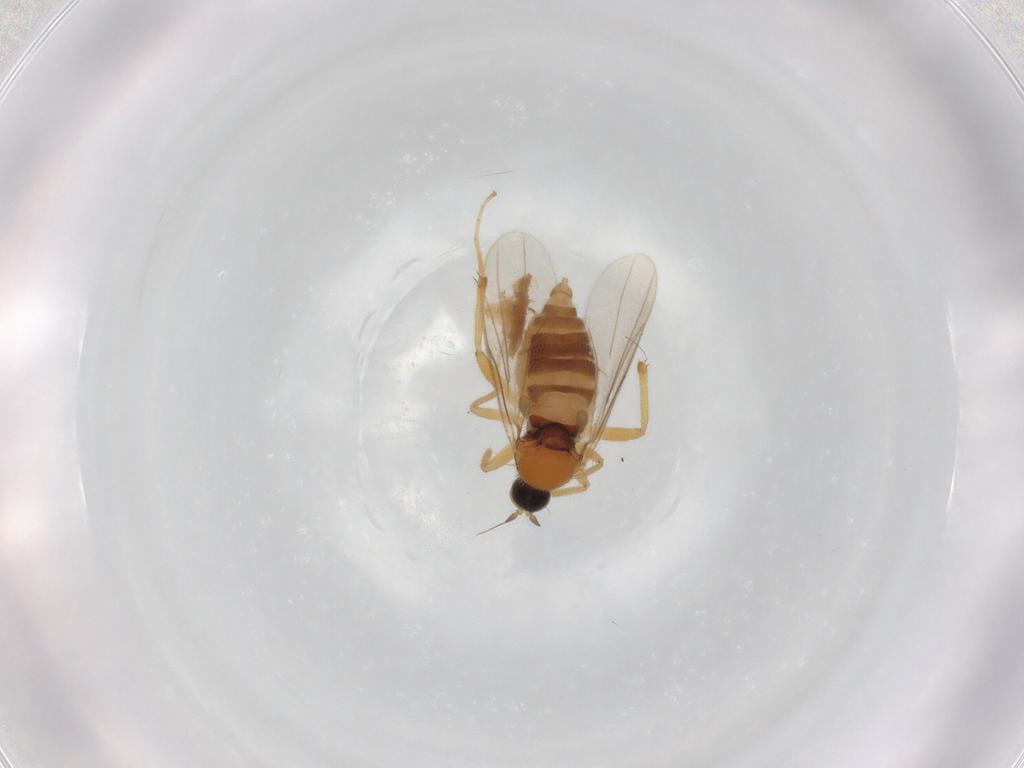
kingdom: Animalia
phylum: Arthropoda
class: Insecta
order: Diptera
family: Hybotidae
